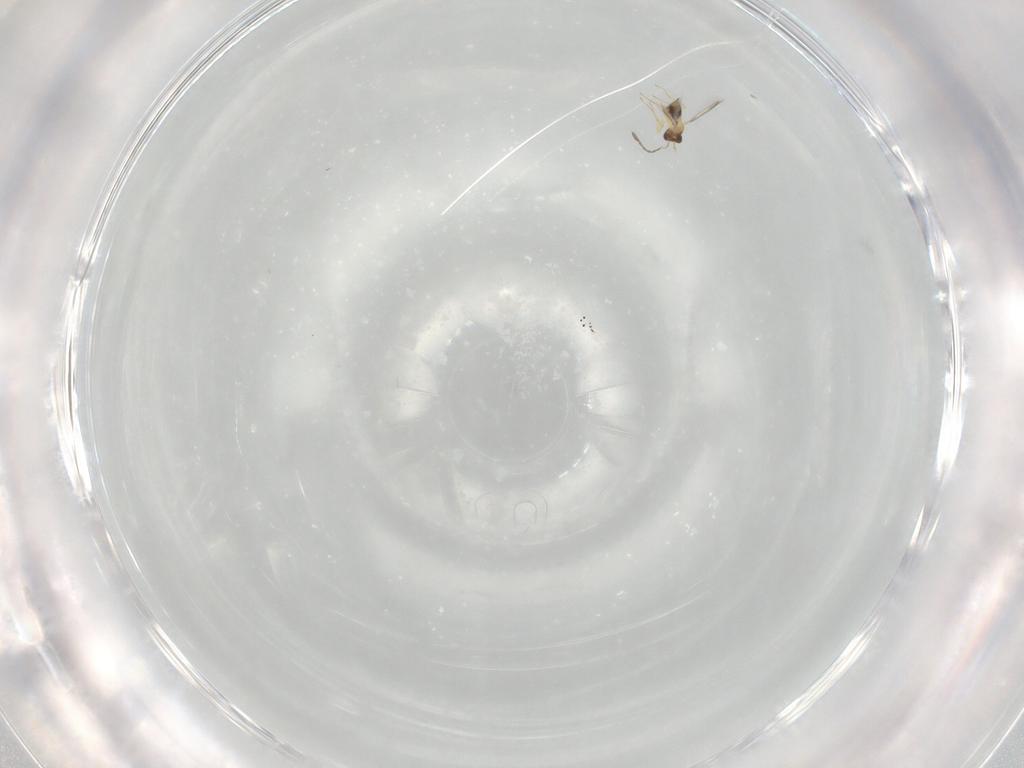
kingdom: Animalia
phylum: Arthropoda
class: Insecta
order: Hymenoptera
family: Mymaridae
